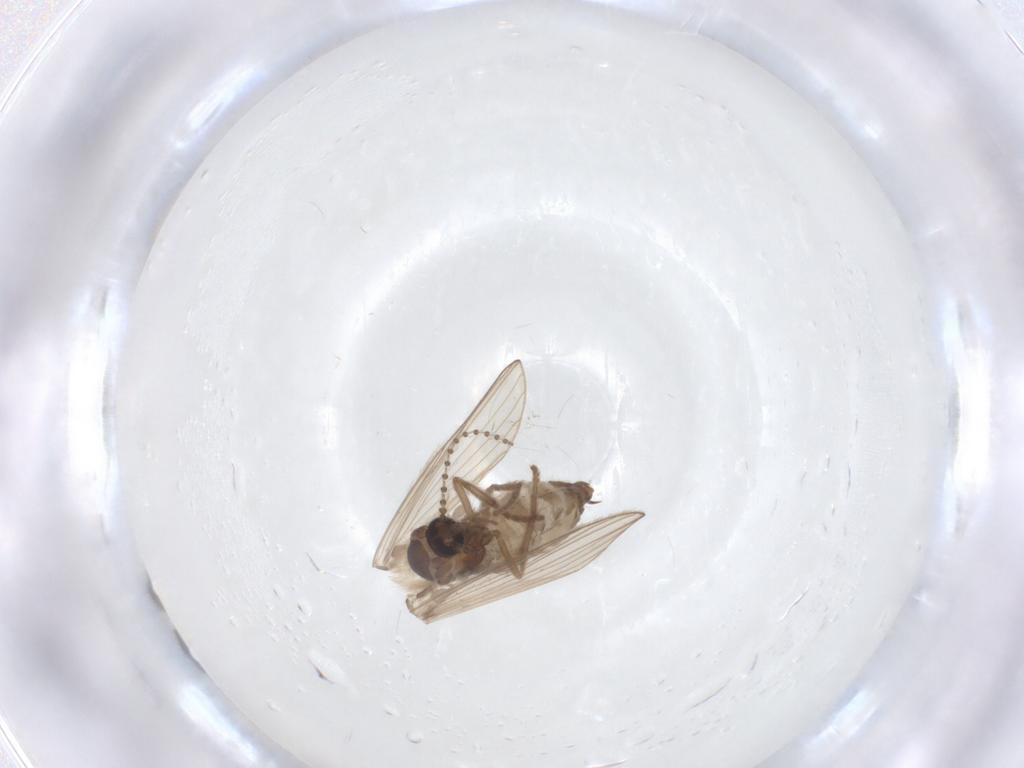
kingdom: Animalia
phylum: Arthropoda
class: Insecta
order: Diptera
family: Psychodidae
